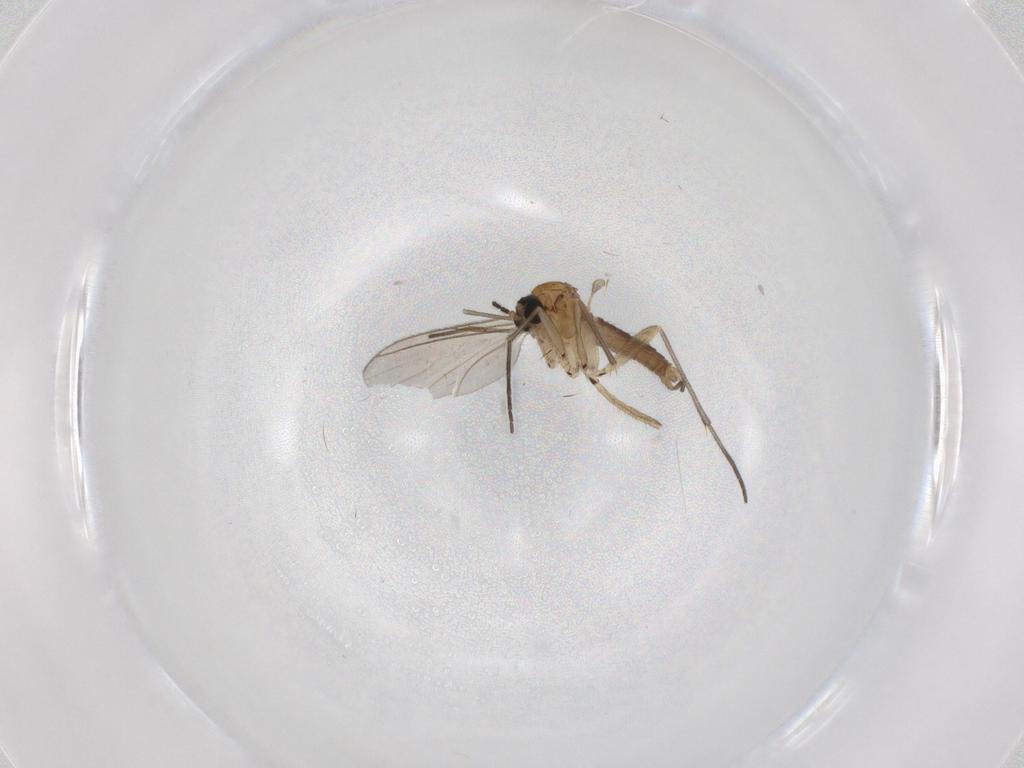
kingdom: Animalia
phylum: Arthropoda
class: Insecta
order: Diptera
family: Sciaridae
